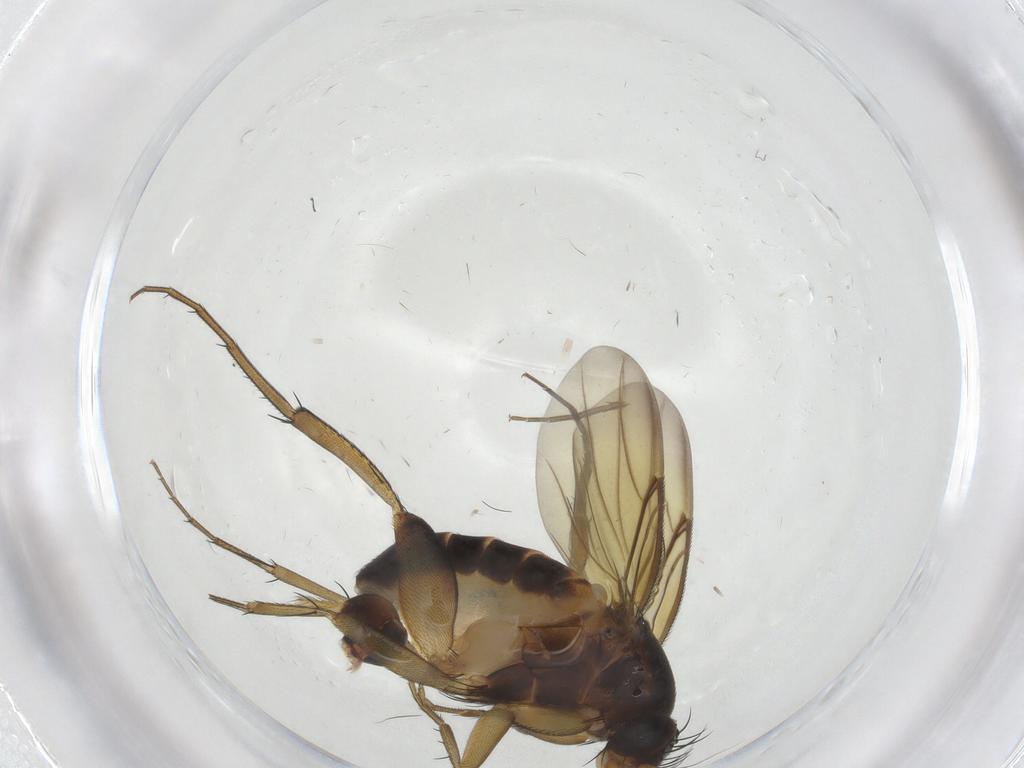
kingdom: Animalia
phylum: Arthropoda
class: Insecta
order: Diptera
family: Phoridae
